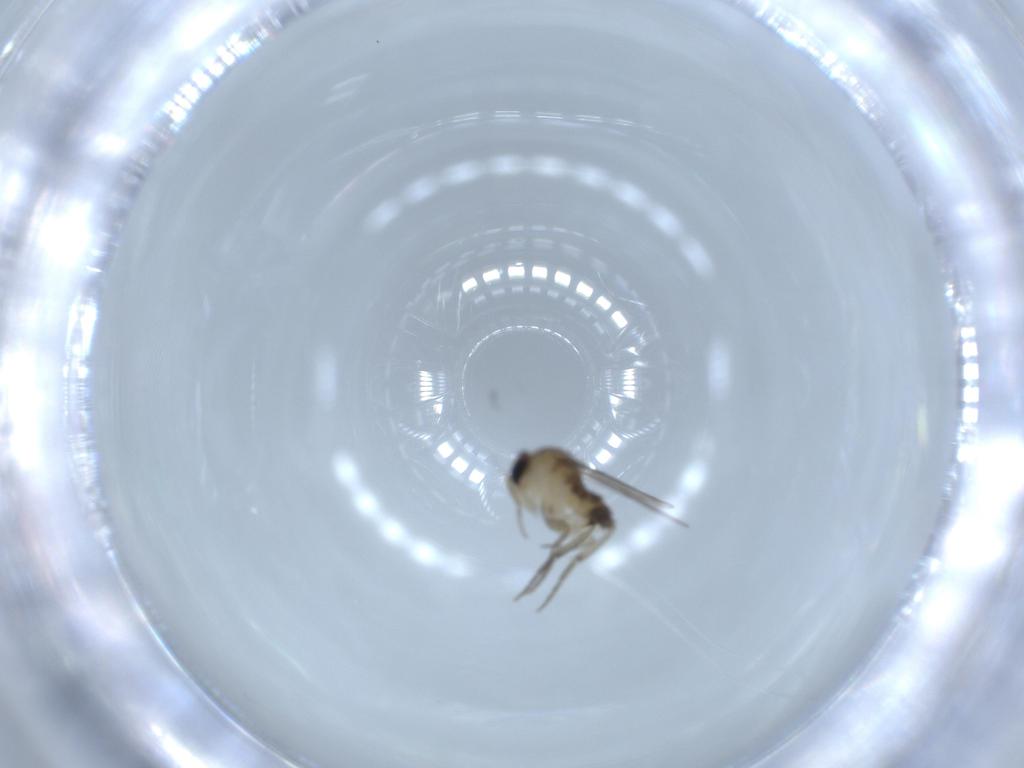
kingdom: Animalia
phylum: Arthropoda
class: Insecta
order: Diptera
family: Phoridae
